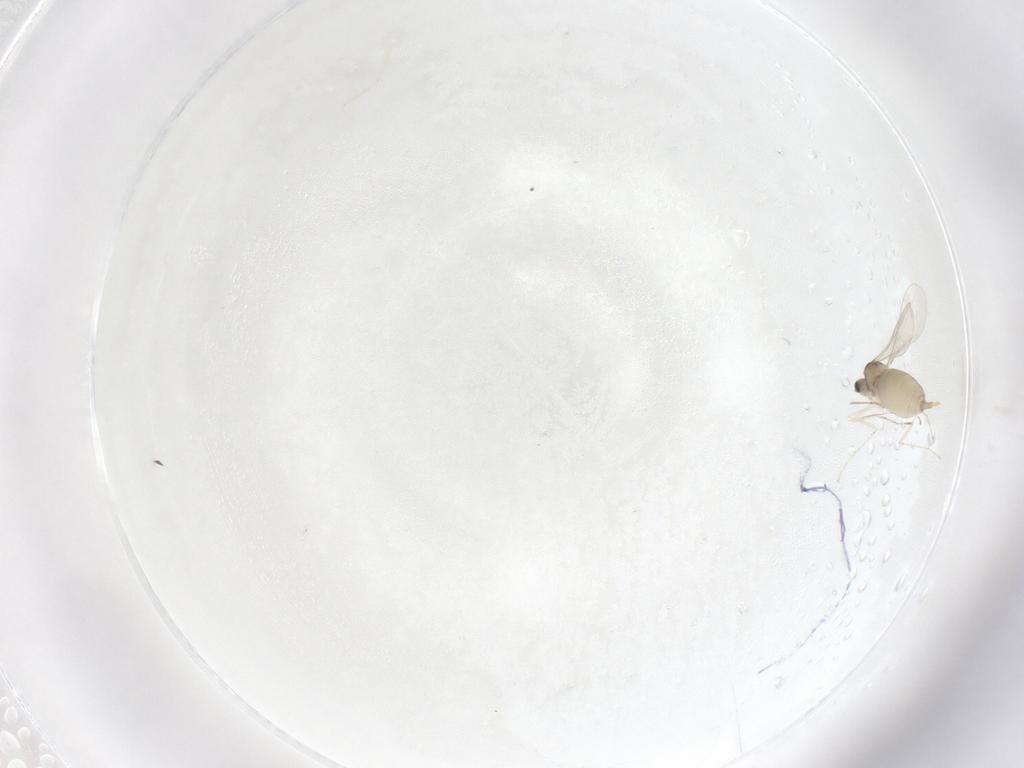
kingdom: Animalia
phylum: Arthropoda
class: Insecta
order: Diptera
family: Cecidomyiidae
